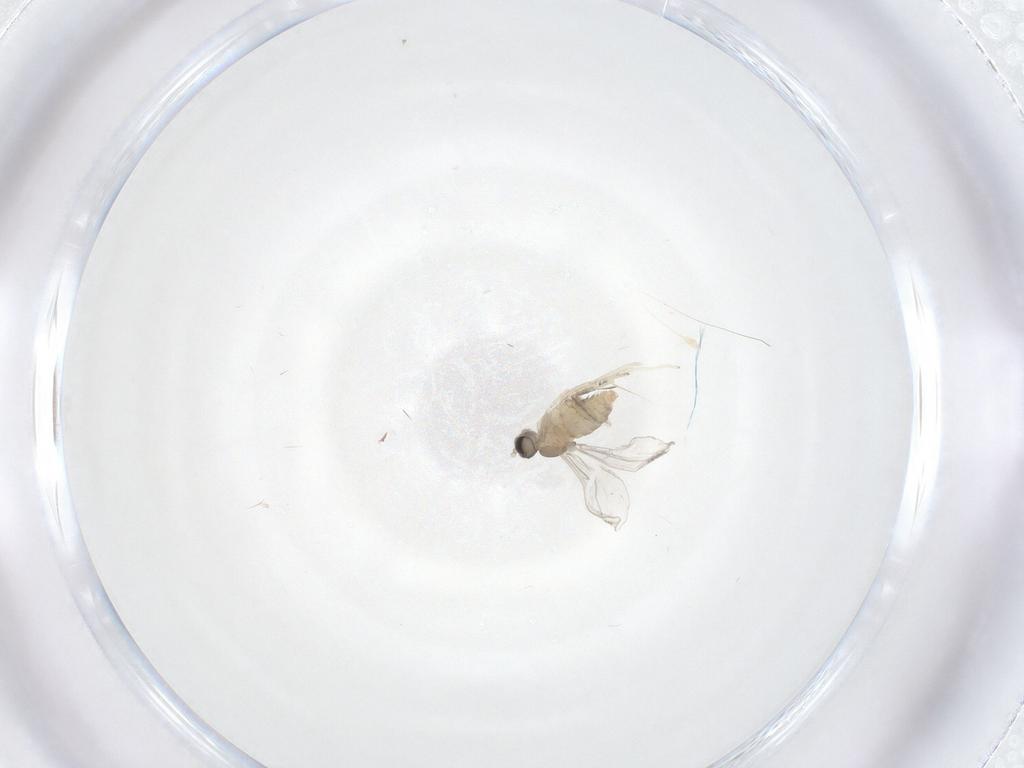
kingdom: Animalia
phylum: Arthropoda
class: Insecta
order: Diptera
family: Cecidomyiidae
